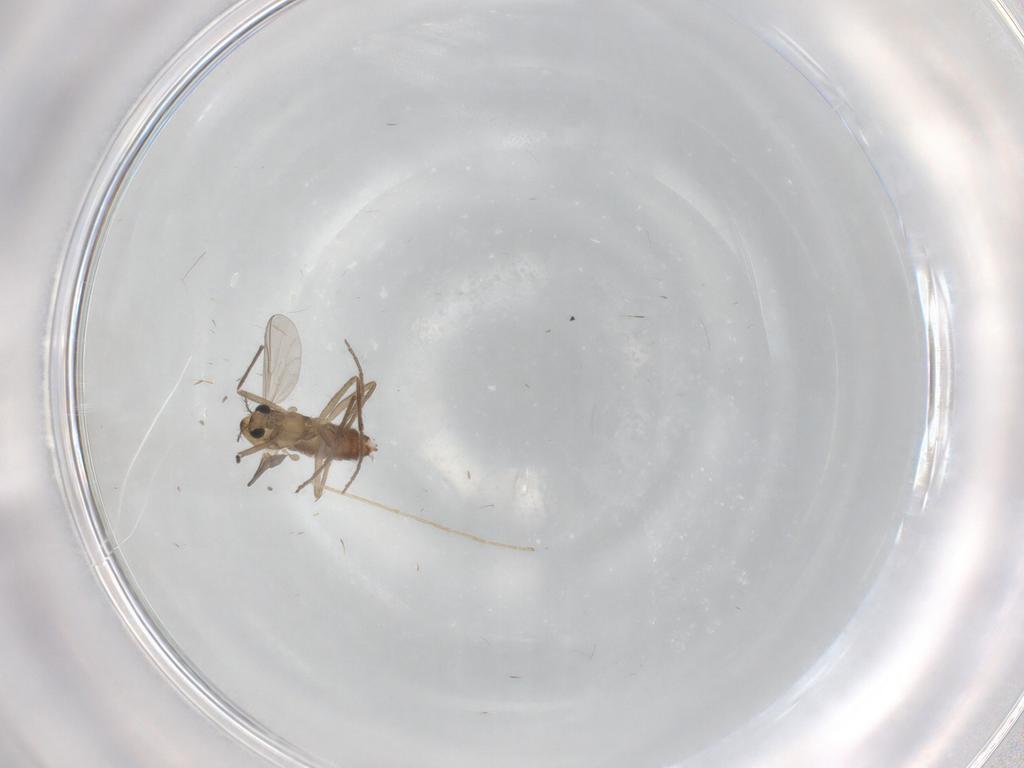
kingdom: Animalia
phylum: Arthropoda
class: Insecta
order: Diptera
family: Chironomidae
